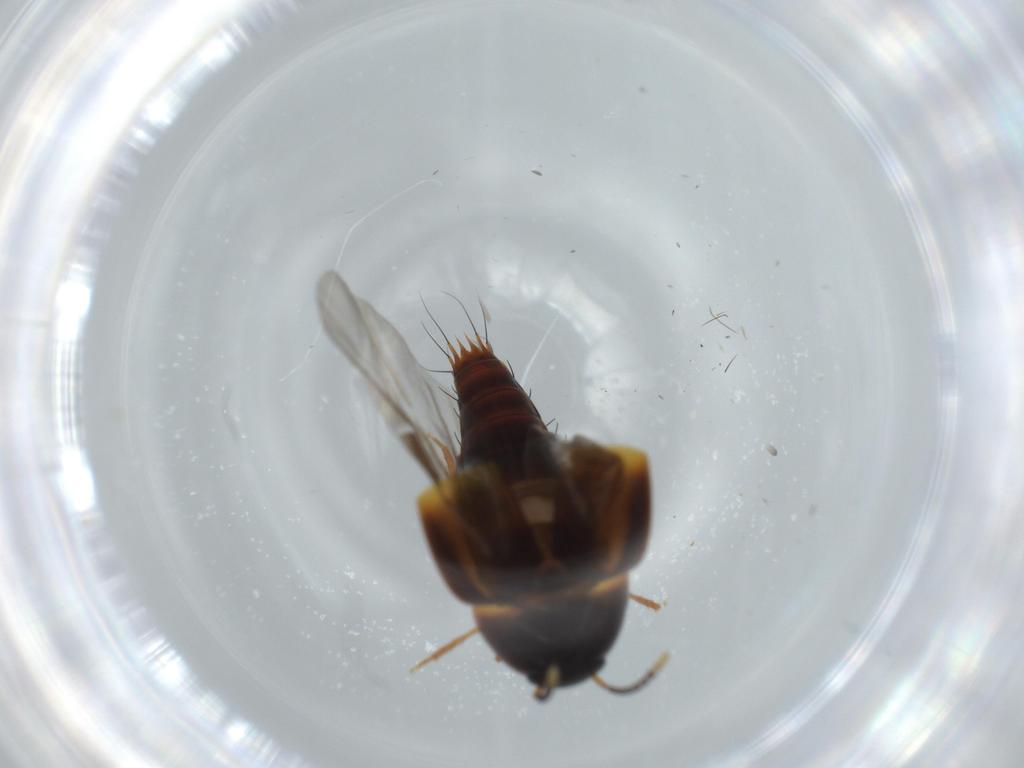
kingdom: Animalia
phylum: Arthropoda
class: Insecta
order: Coleoptera
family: Staphylinidae
